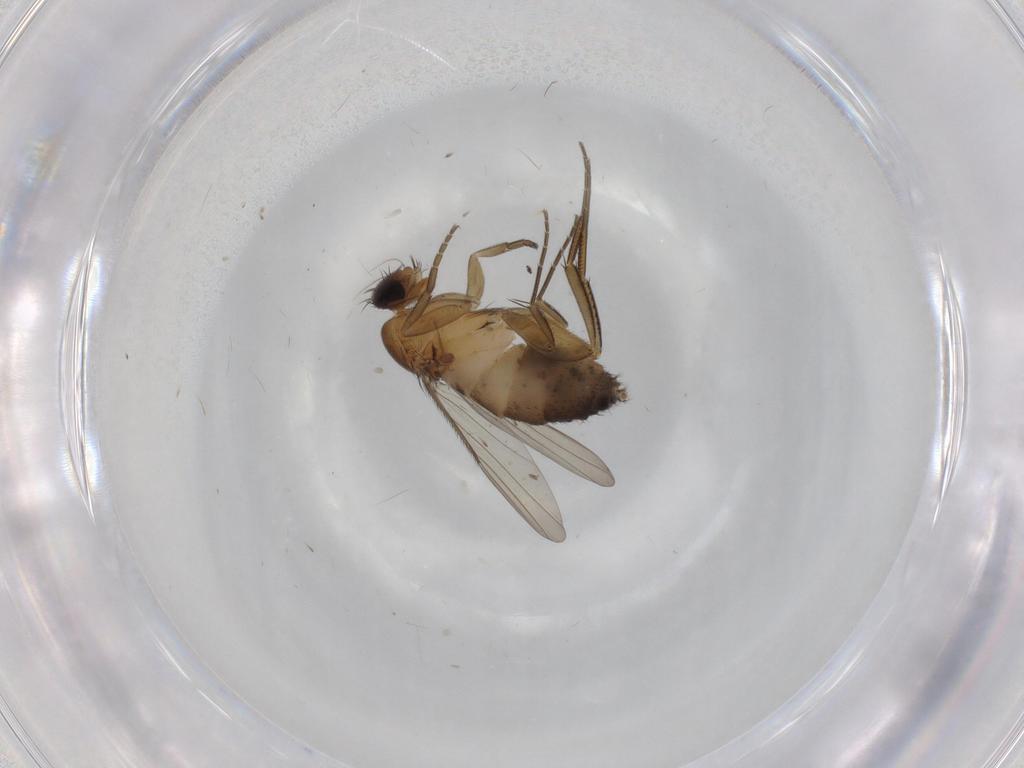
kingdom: Animalia
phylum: Arthropoda
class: Insecta
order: Diptera
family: Phoridae
